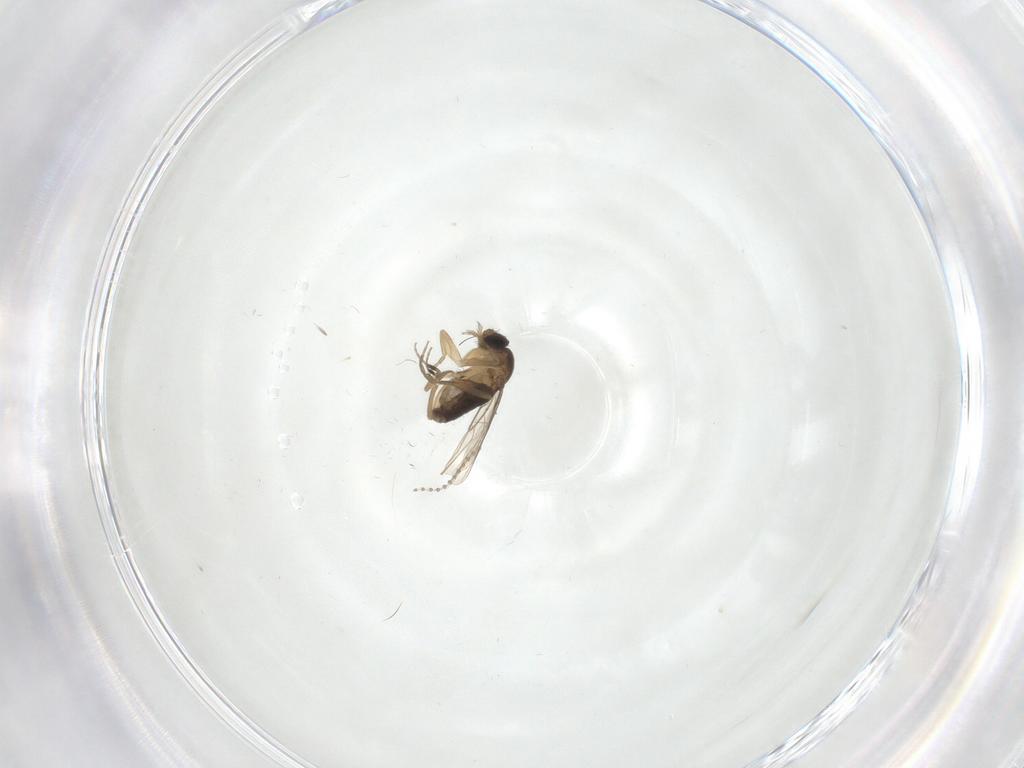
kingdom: Animalia
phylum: Arthropoda
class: Insecta
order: Diptera
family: Cecidomyiidae
